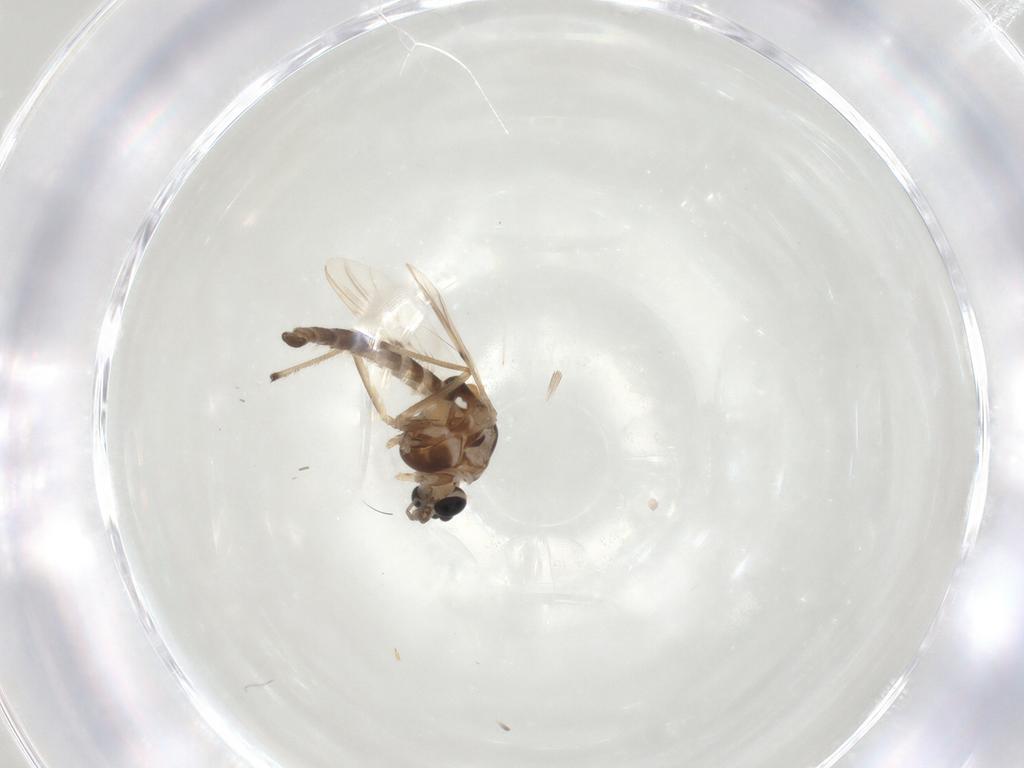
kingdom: Animalia
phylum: Arthropoda
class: Insecta
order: Diptera
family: Chironomidae
